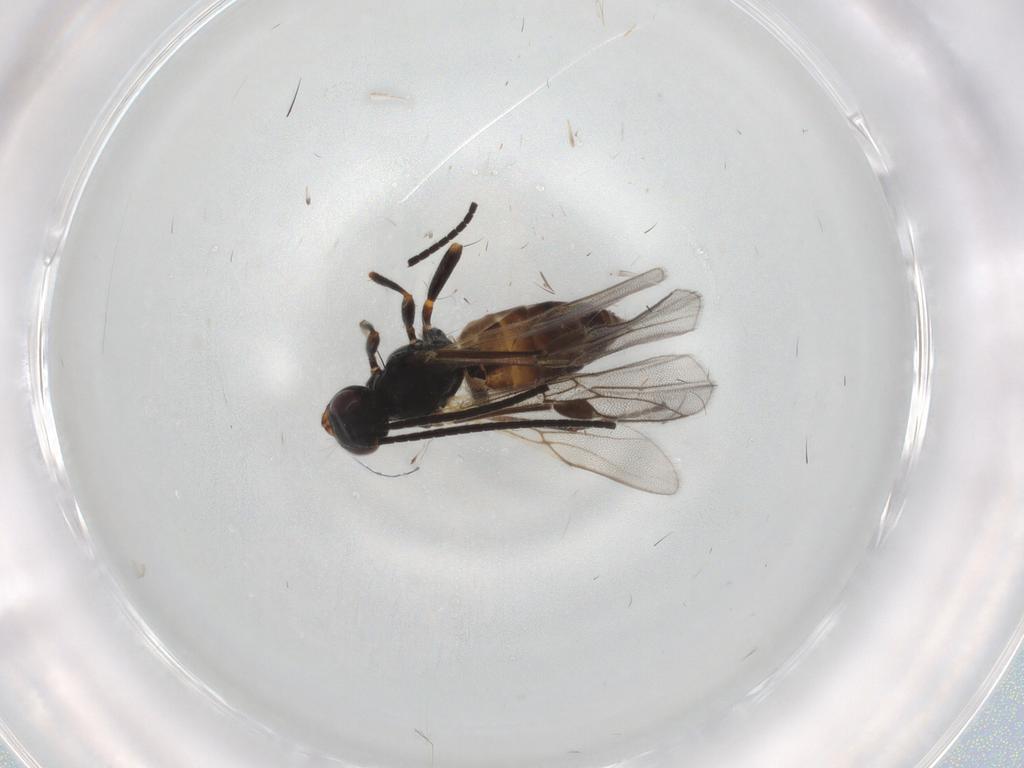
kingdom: Animalia
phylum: Arthropoda
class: Insecta
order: Hymenoptera
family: Braconidae
